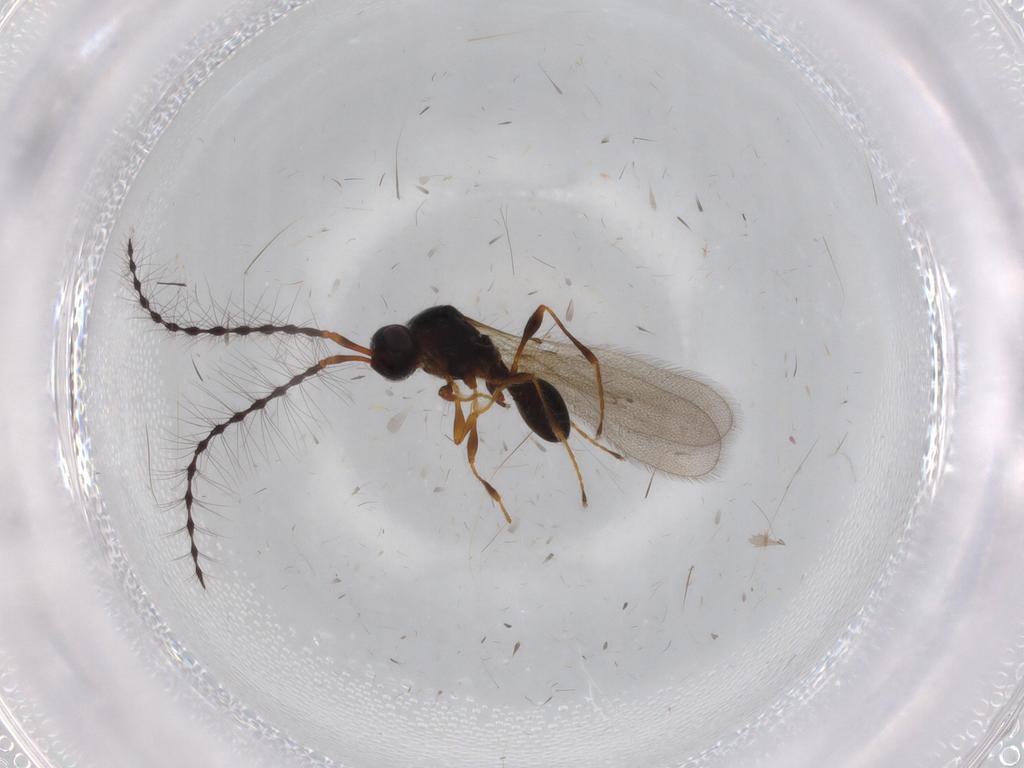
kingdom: Animalia
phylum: Arthropoda
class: Insecta
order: Hymenoptera
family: Diapriidae
